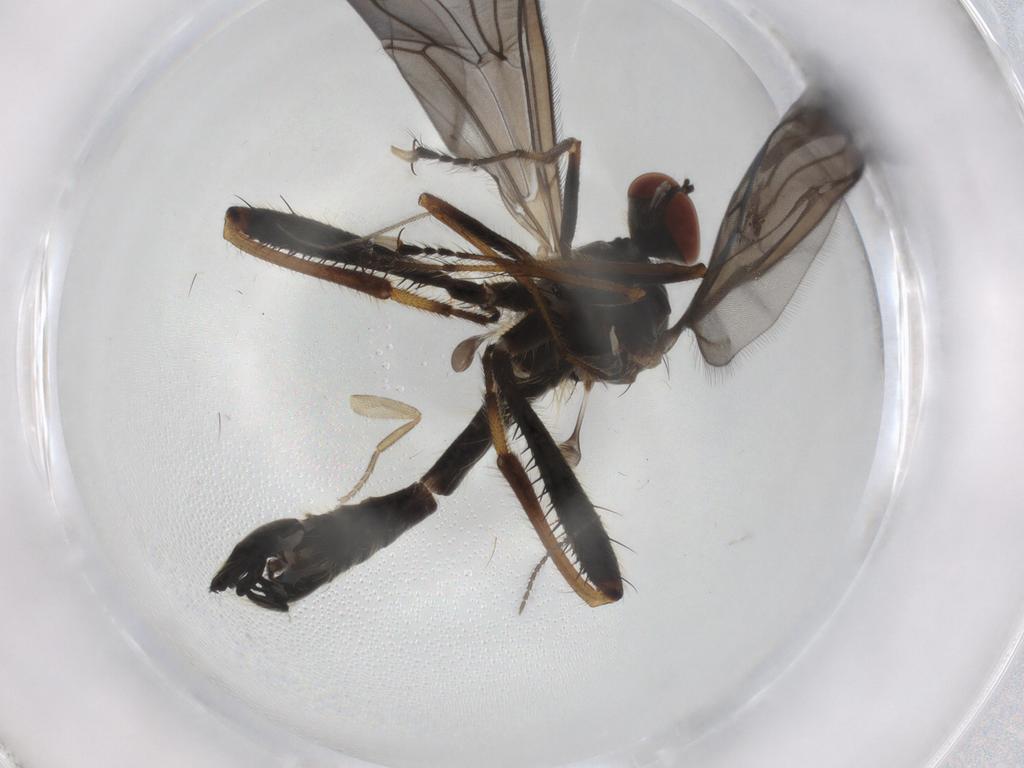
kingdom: Animalia
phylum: Arthropoda
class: Insecta
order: Diptera
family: Hybotidae
